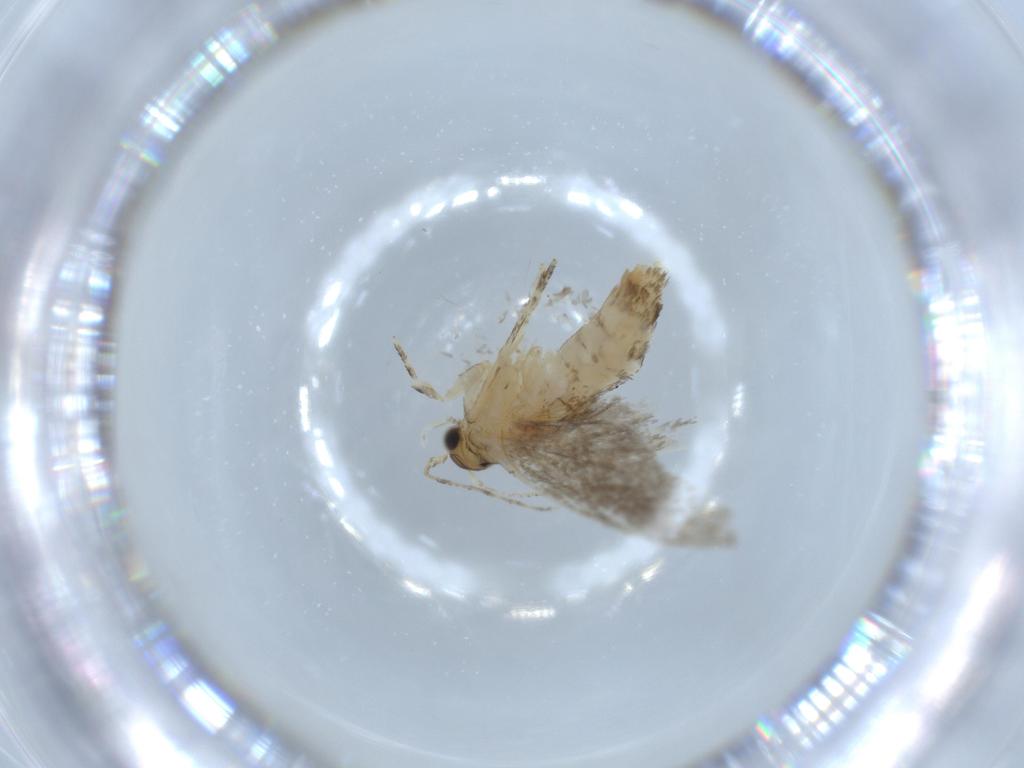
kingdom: Animalia
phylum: Arthropoda
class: Insecta
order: Lepidoptera
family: Tineidae
